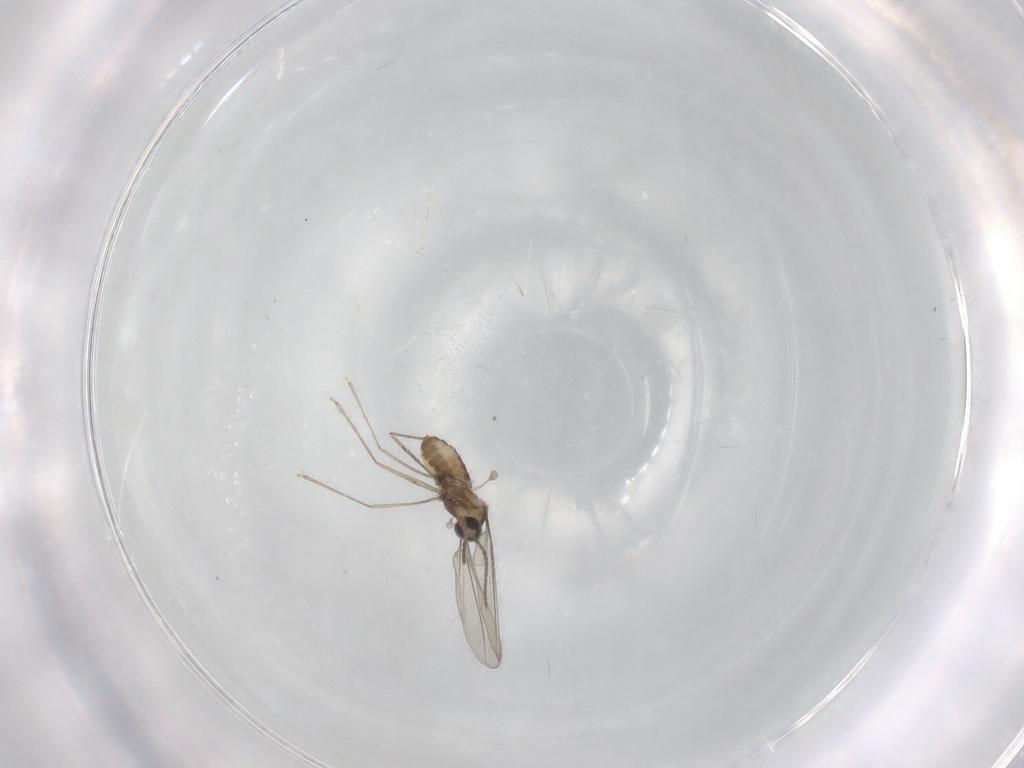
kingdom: Animalia
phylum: Arthropoda
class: Insecta
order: Diptera
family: Cecidomyiidae
